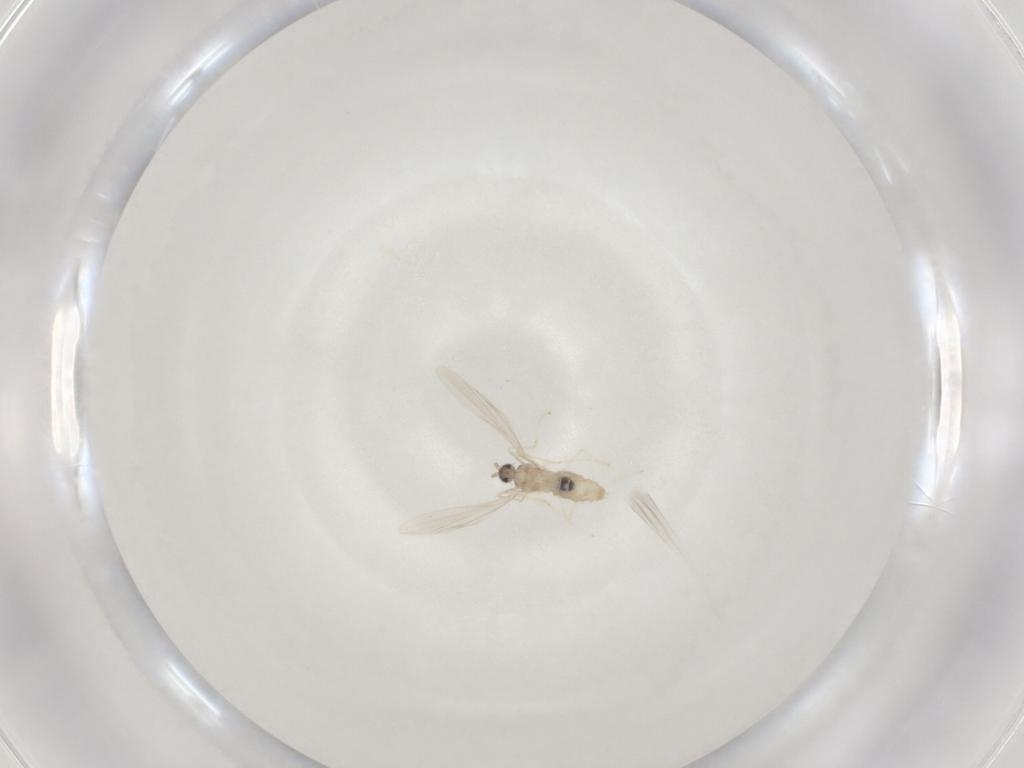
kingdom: Animalia
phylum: Arthropoda
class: Insecta
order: Diptera
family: Cecidomyiidae
